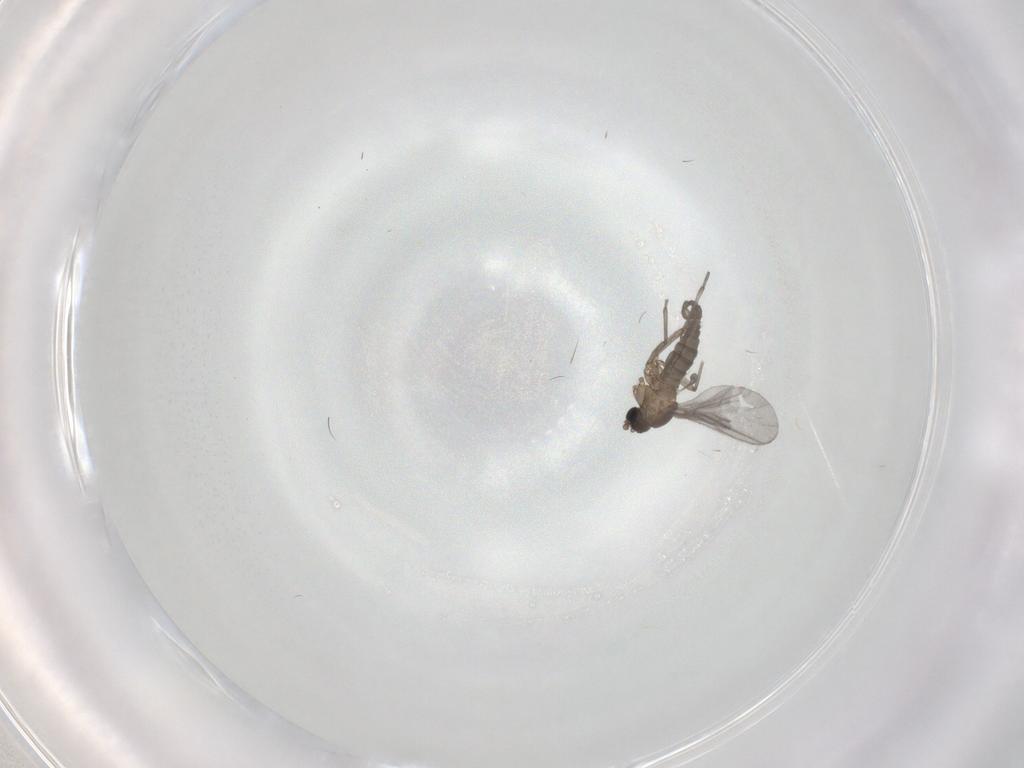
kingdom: Animalia
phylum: Arthropoda
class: Insecta
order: Diptera
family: Sciaridae
